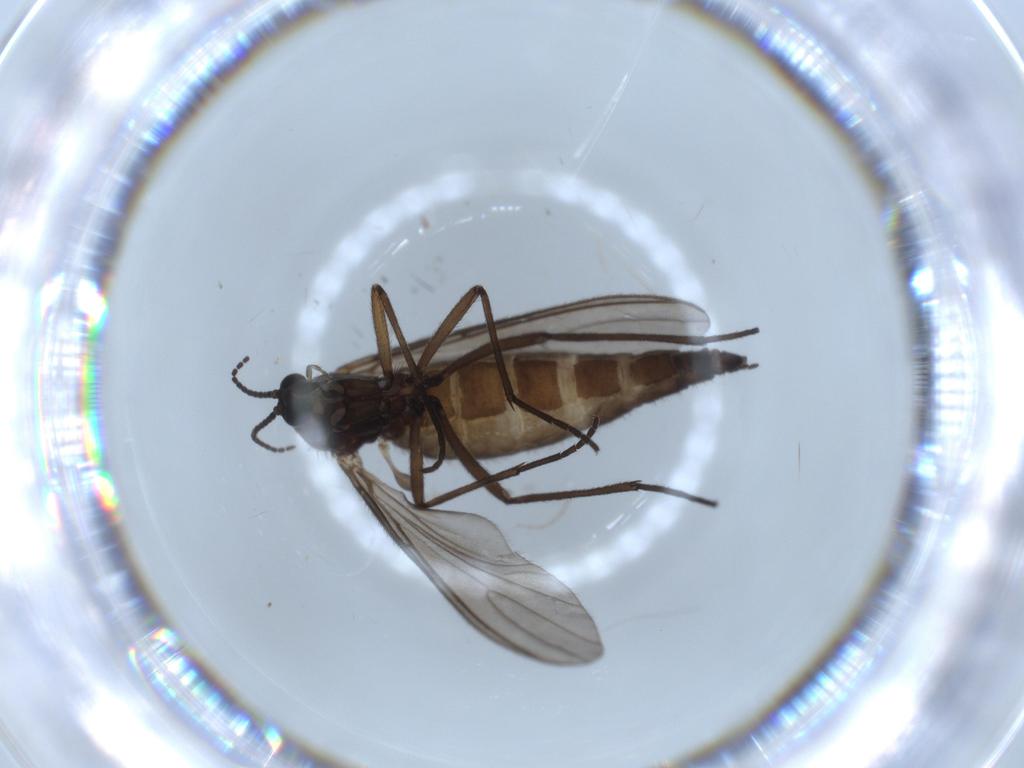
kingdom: Animalia
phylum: Arthropoda
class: Insecta
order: Diptera
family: Sciaridae
